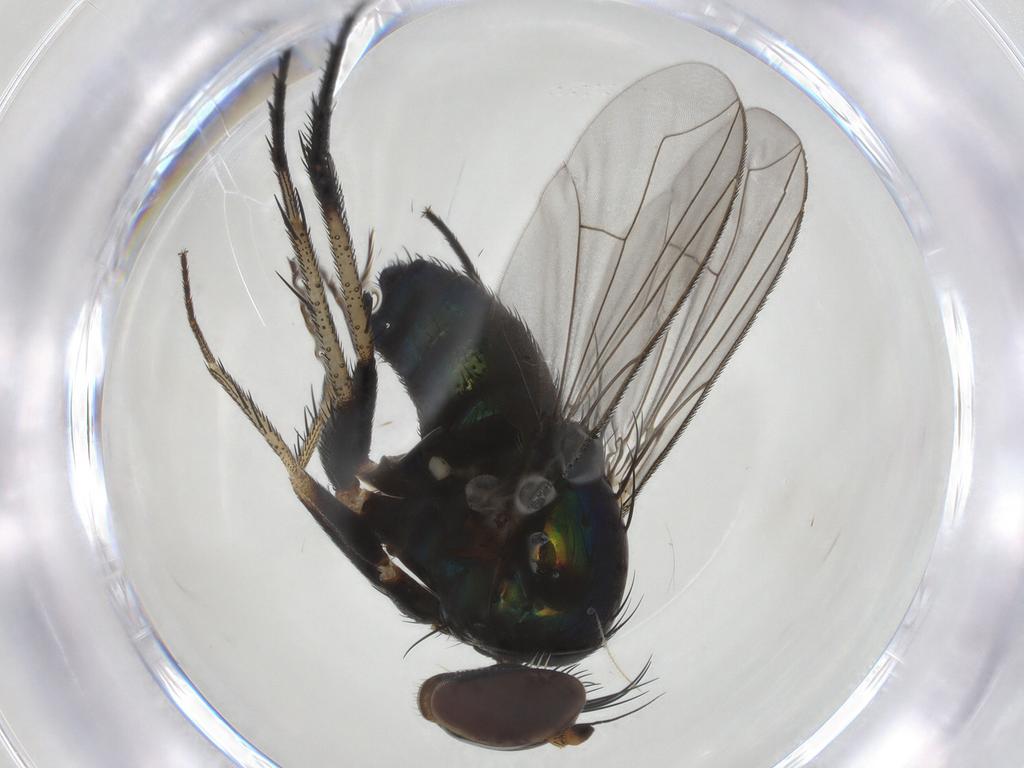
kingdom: Animalia
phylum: Arthropoda
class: Insecta
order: Diptera
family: Dolichopodidae
